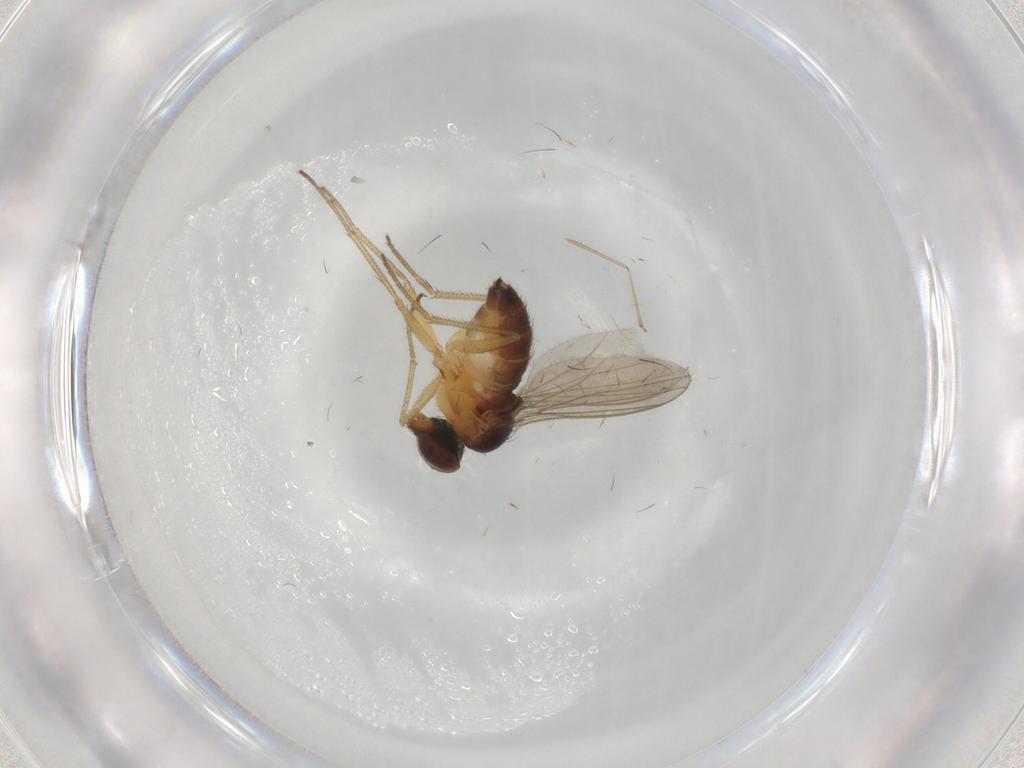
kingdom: Animalia
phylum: Arthropoda
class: Insecta
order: Diptera
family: Dolichopodidae
